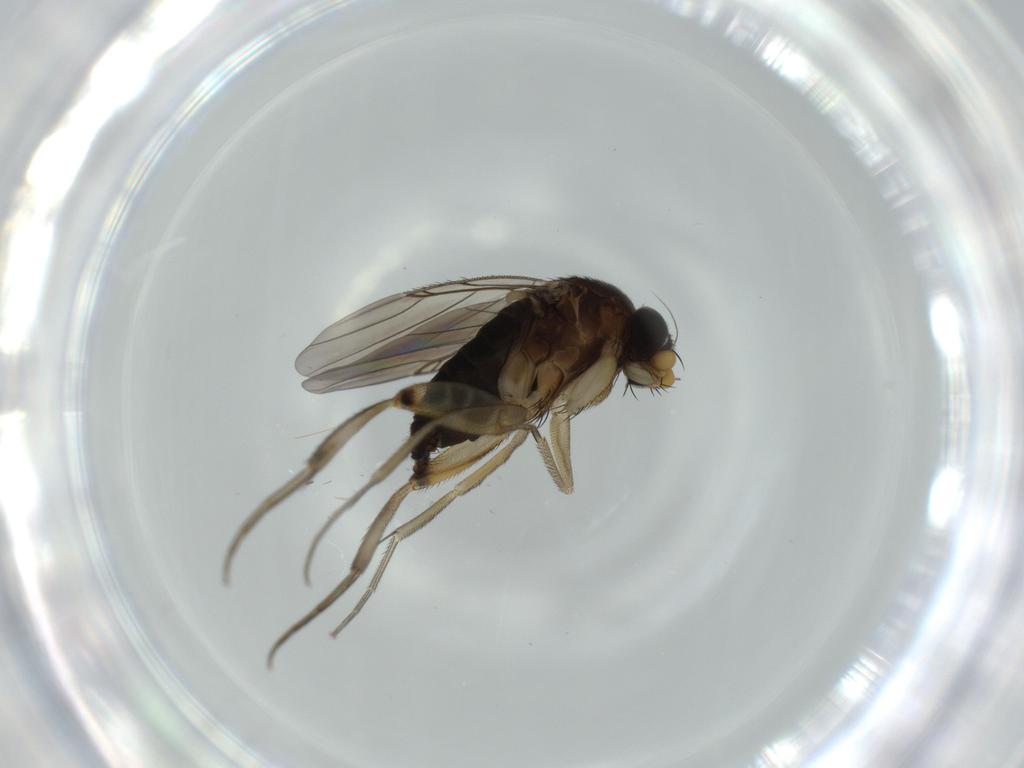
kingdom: Animalia
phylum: Arthropoda
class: Insecta
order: Diptera
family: Phoridae
